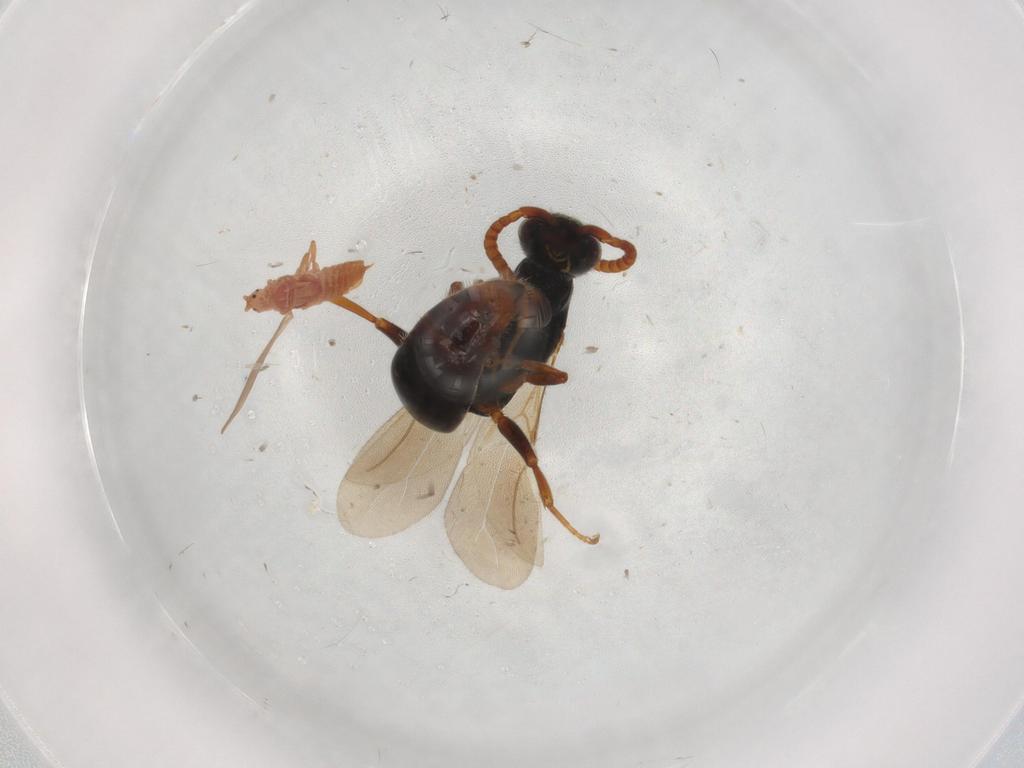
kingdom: Animalia
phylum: Arthropoda
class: Insecta
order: Hymenoptera
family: Bethylidae
